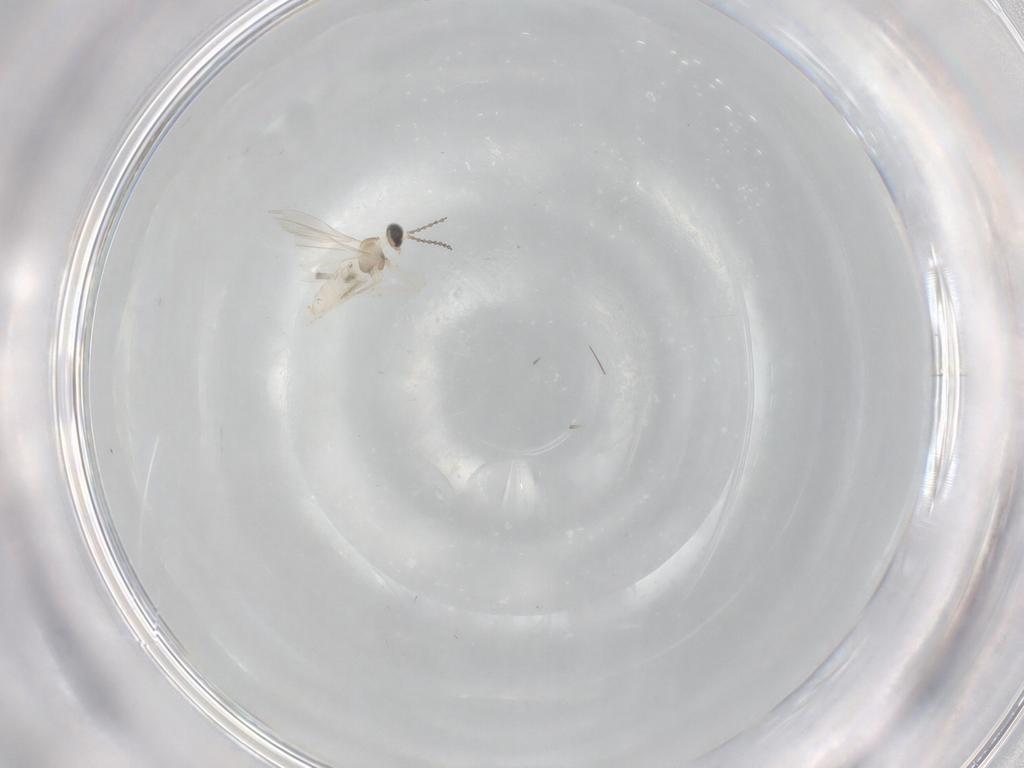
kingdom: Animalia
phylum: Arthropoda
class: Insecta
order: Diptera
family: Cecidomyiidae
